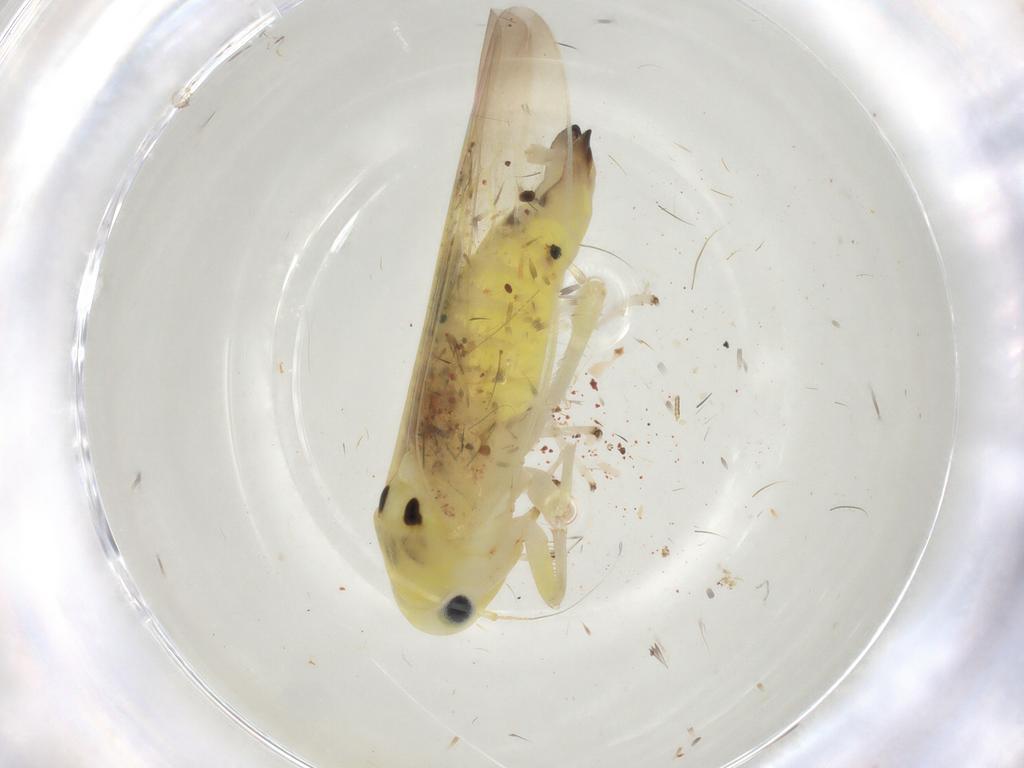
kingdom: Animalia
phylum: Arthropoda
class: Insecta
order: Hemiptera
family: Cicadellidae
